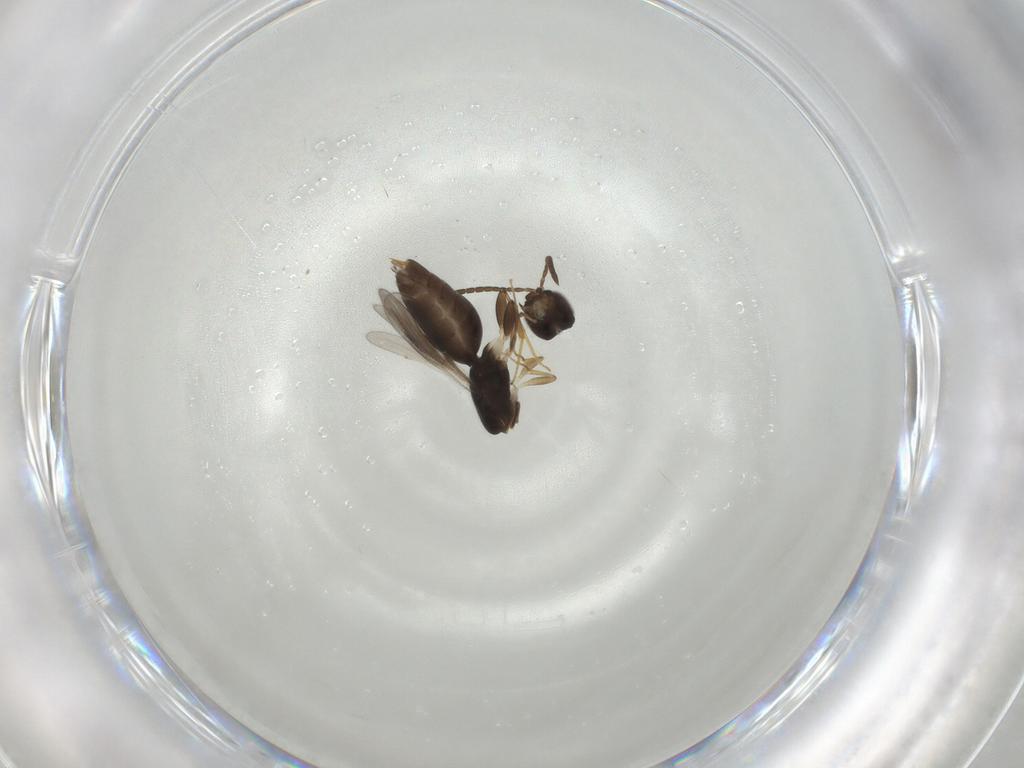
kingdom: Animalia
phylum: Arthropoda
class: Insecta
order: Hymenoptera
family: Megaspilidae
